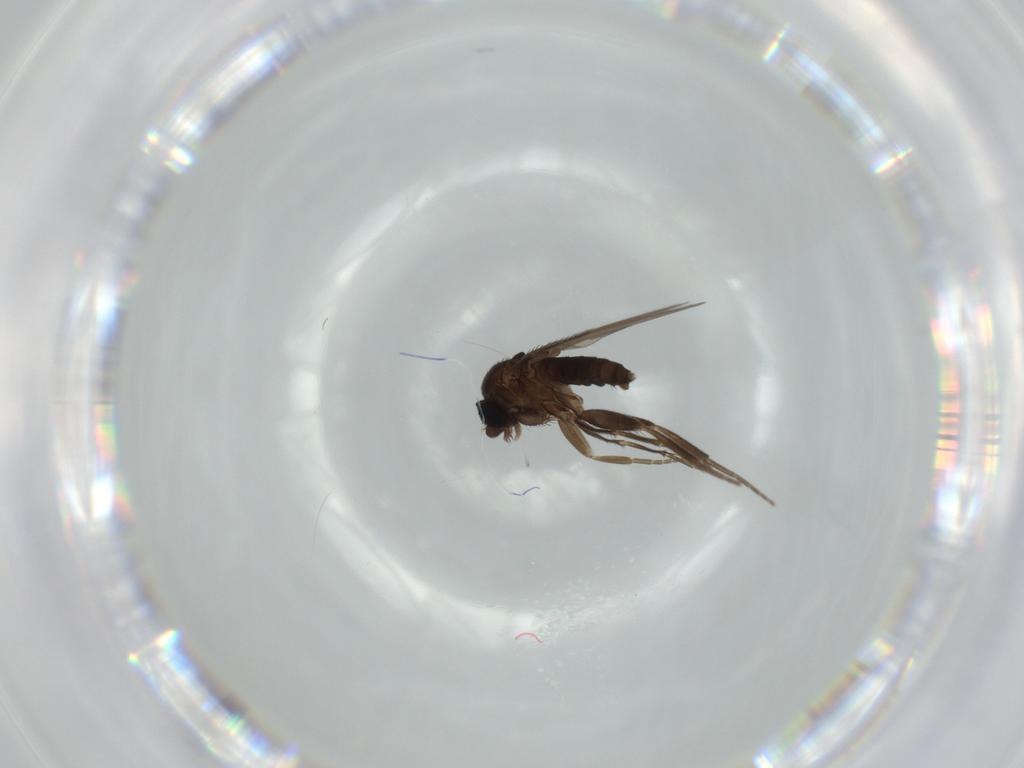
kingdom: Animalia
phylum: Arthropoda
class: Insecta
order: Diptera
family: Phoridae
